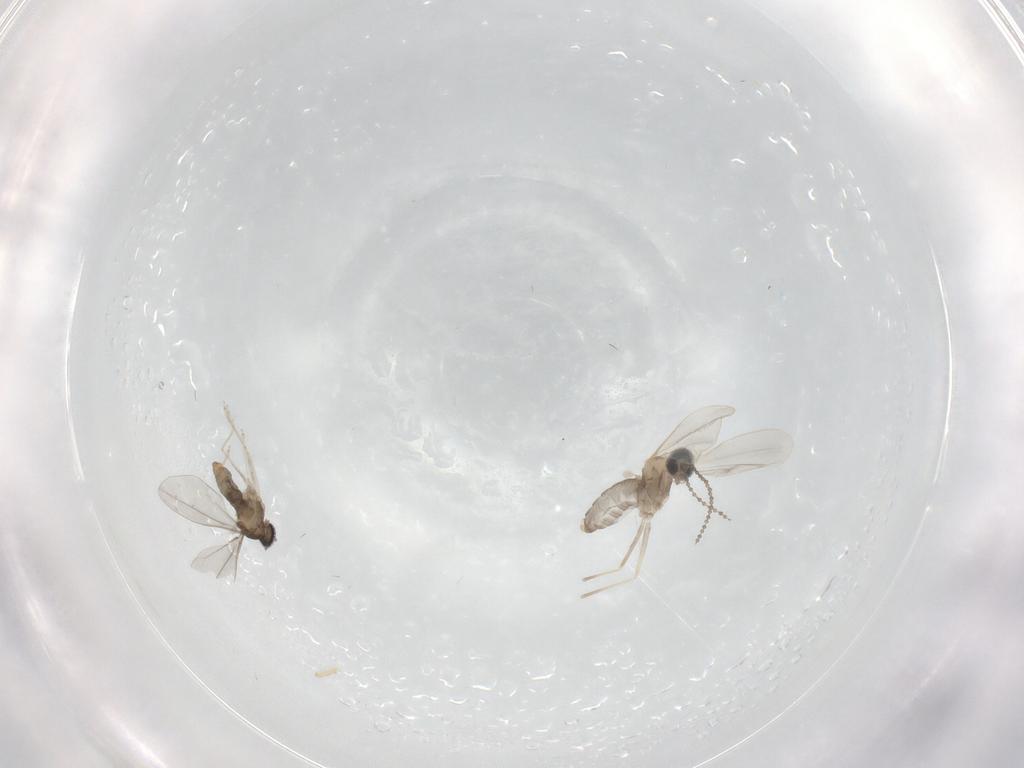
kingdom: Animalia
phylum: Arthropoda
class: Insecta
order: Diptera
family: Cecidomyiidae
